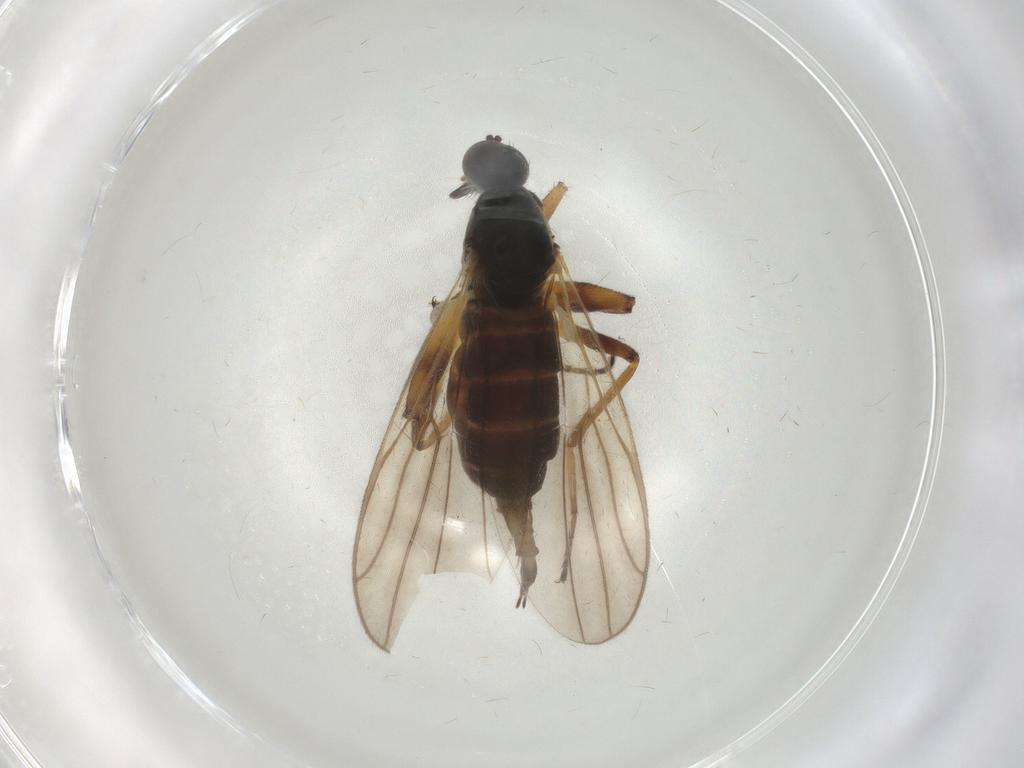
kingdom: Animalia
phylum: Arthropoda
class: Insecta
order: Diptera
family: Hybotidae
